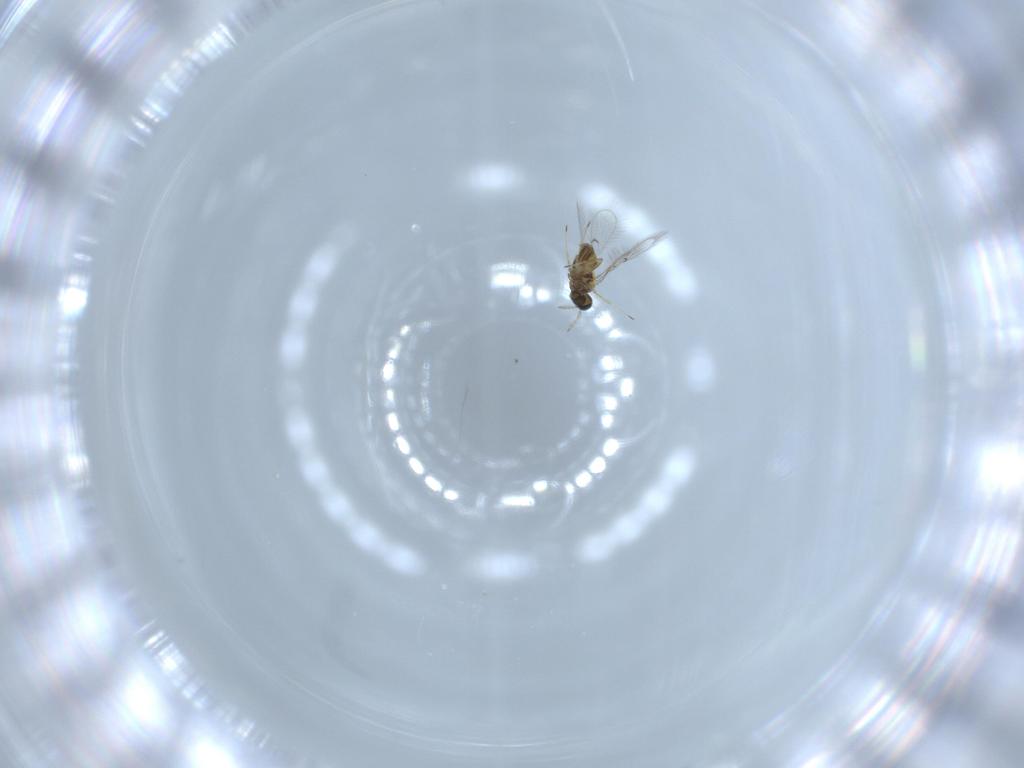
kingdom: Animalia
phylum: Arthropoda
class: Insecta
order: Hymenoptera
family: Trichogrammatidae
